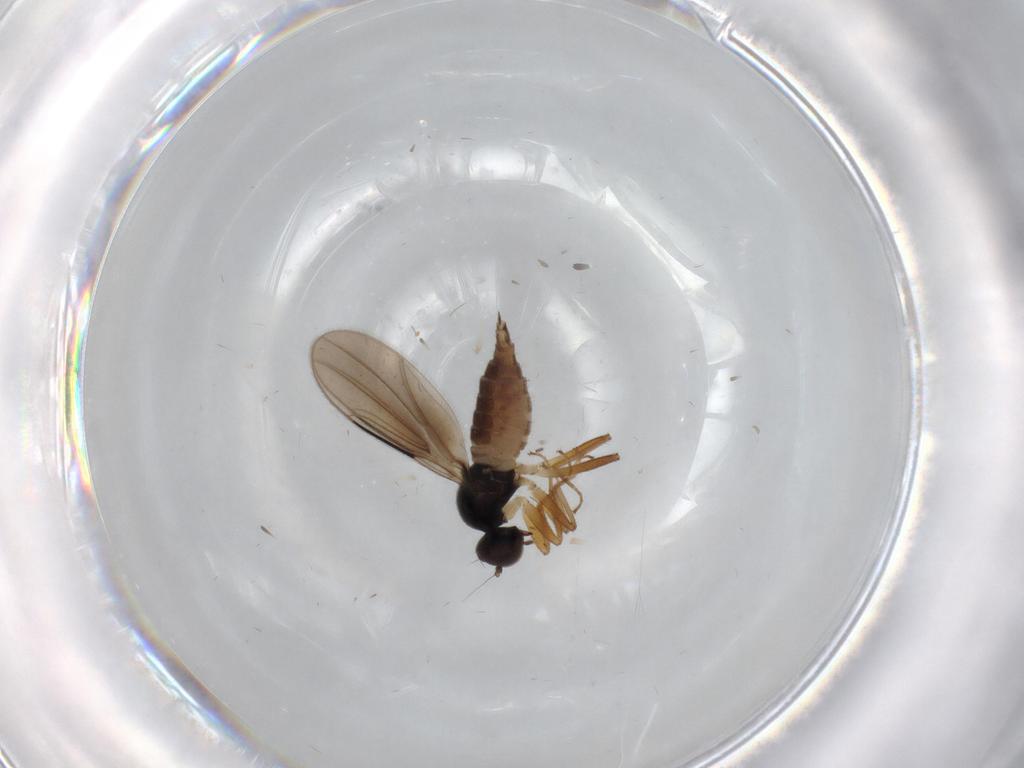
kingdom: Animalia
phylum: Arthropoda
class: Insecta
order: Diptera
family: Hybotidae
